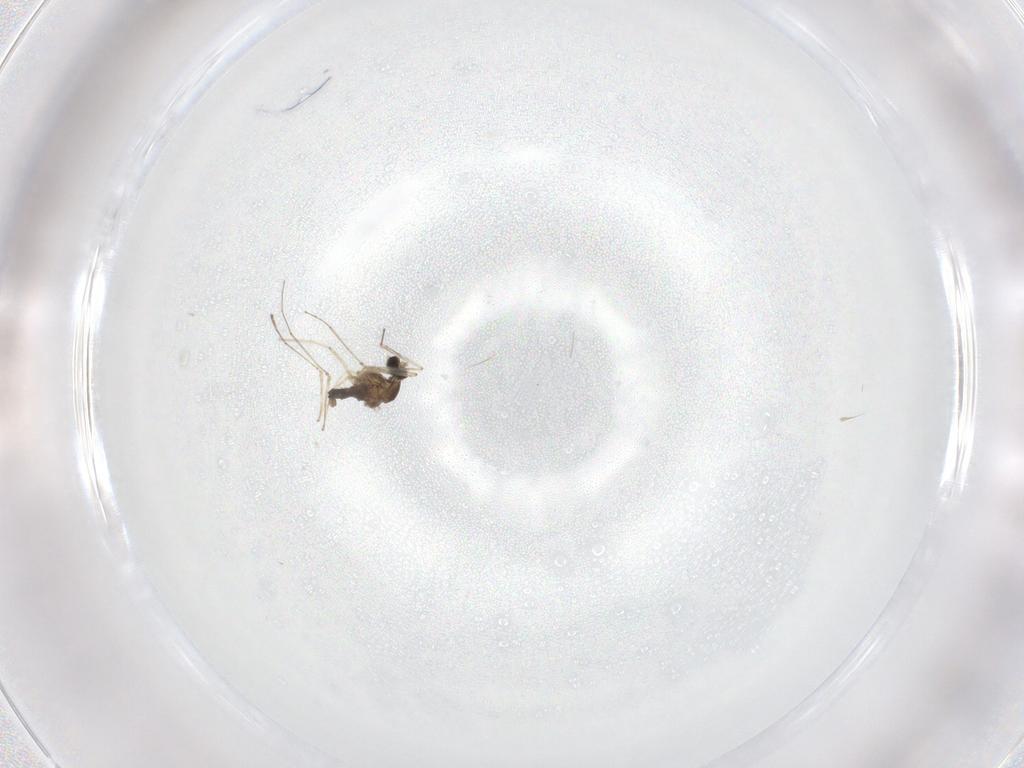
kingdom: Animalia
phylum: Arthropoda
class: Insecta
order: Diptera
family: Cecidomyiidae
